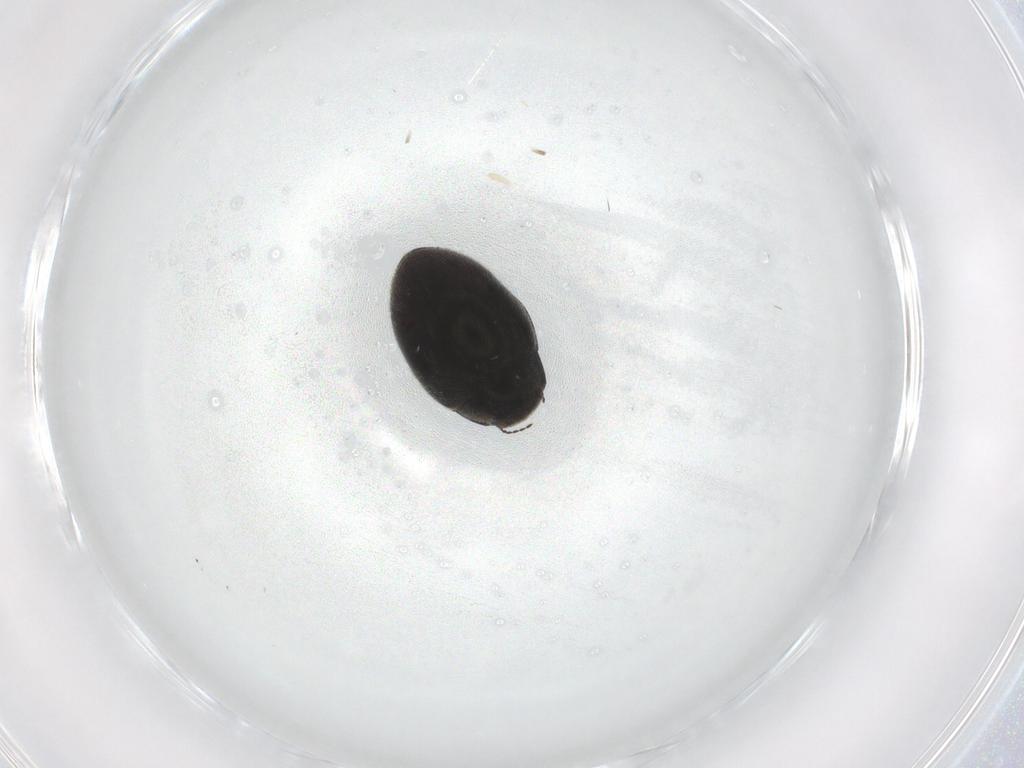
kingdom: Animalia
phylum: Arthropoda
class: Insecta
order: Coleoptera
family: Limnichidae
